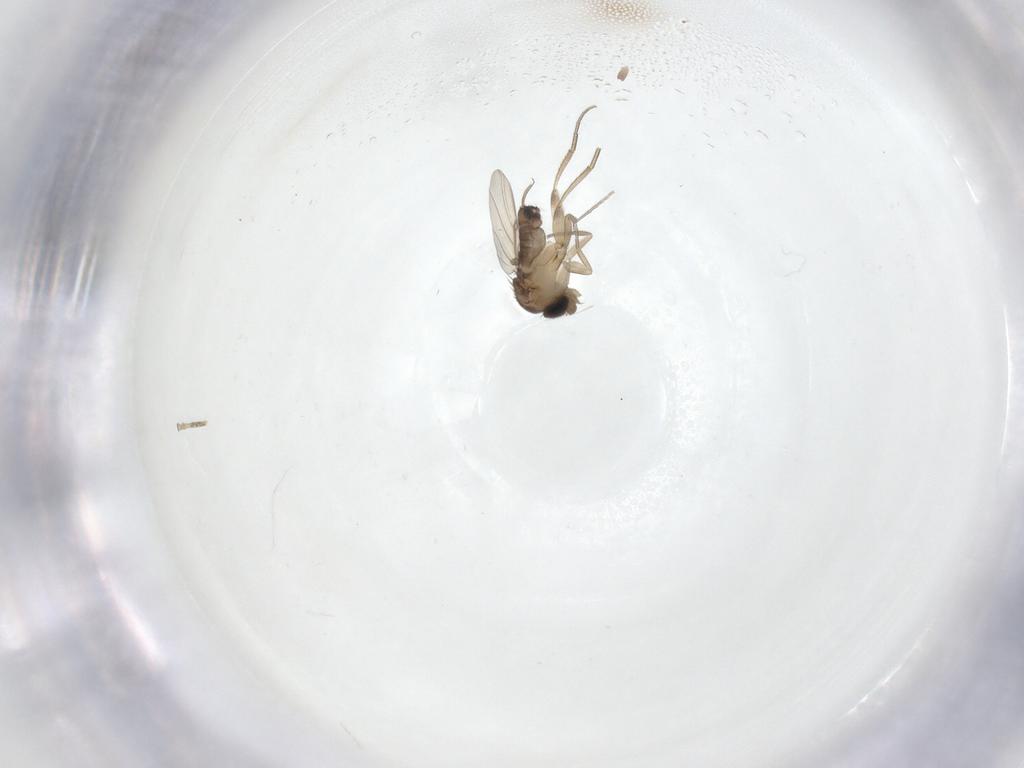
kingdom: Animalia
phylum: Arthropoda
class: Insecta
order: Diptera
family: Phoridae
